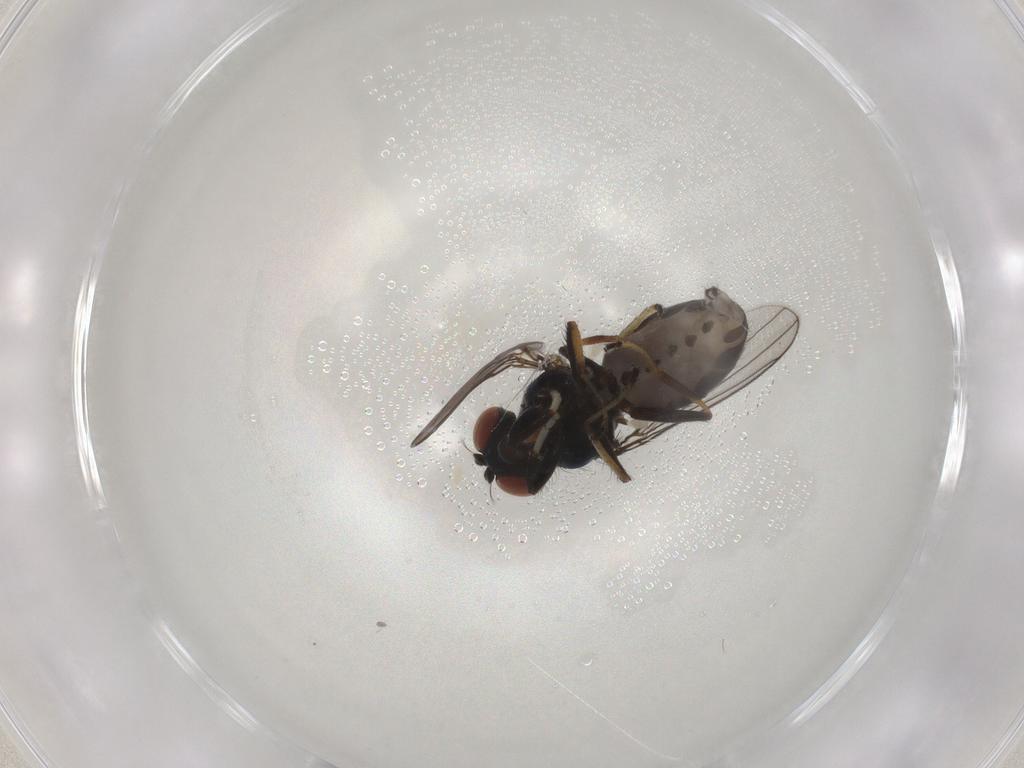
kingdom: Animalia
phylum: Arthropoda
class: Insecta
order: Diptera
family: Ephydridae
